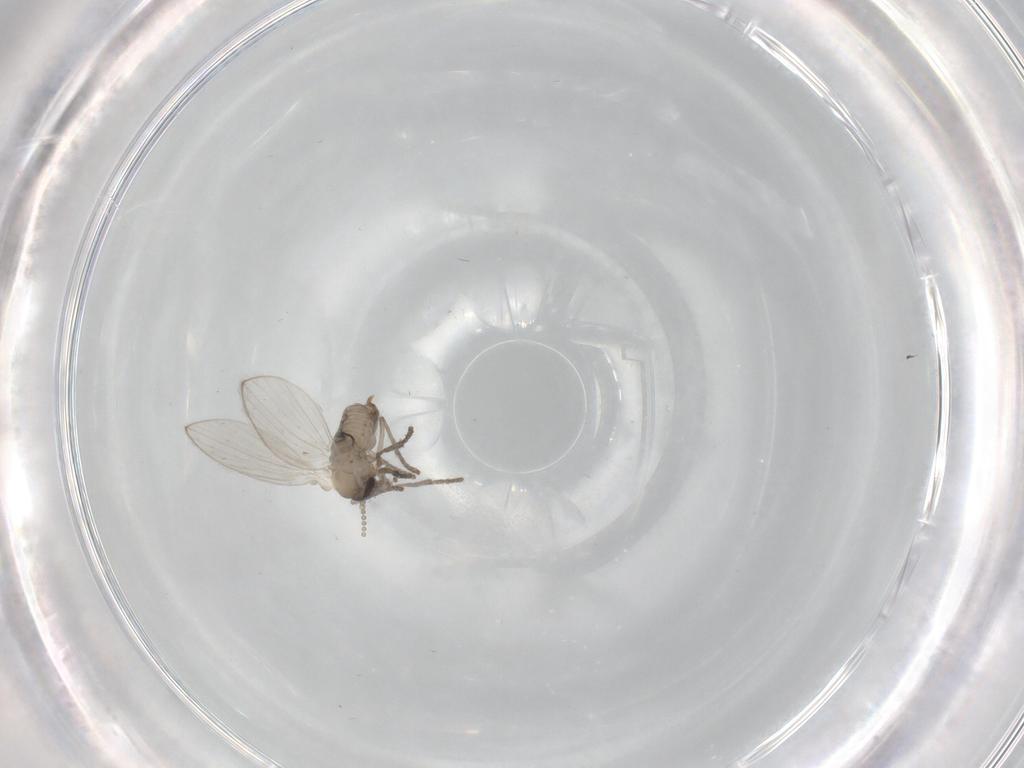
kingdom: Animalia
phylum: Arthropoda
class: Insecta
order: Diptera
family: Psychodidae
